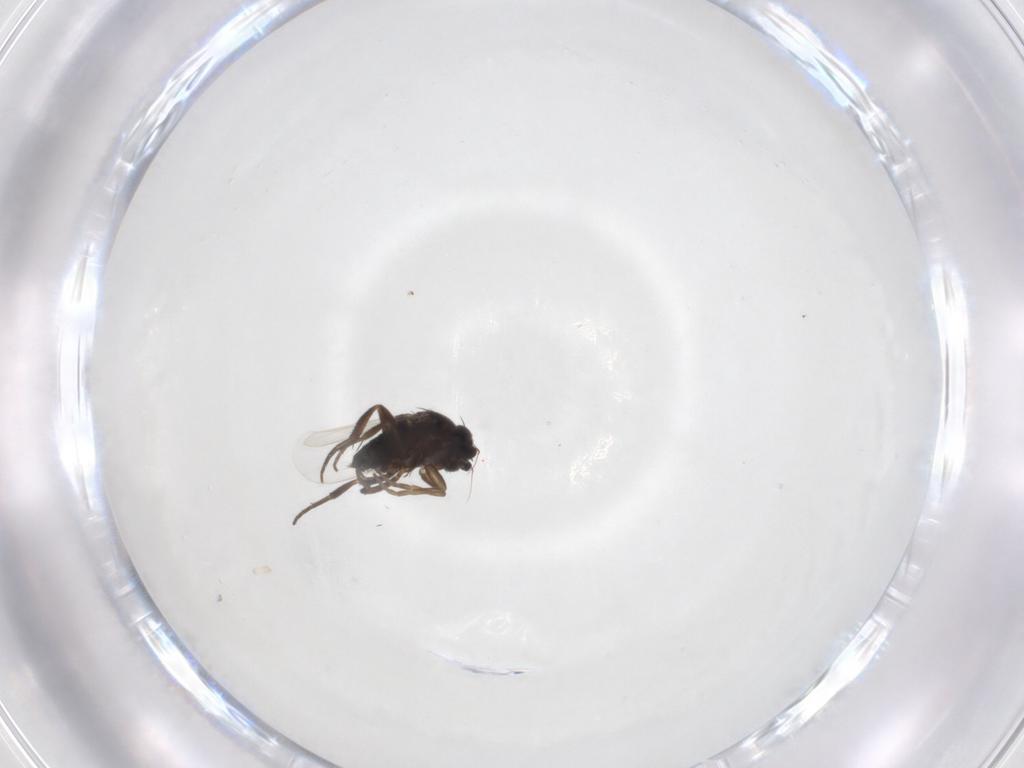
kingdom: Animalia
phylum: Arthropoda
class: Insecta
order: Diptera
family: Phoridae
